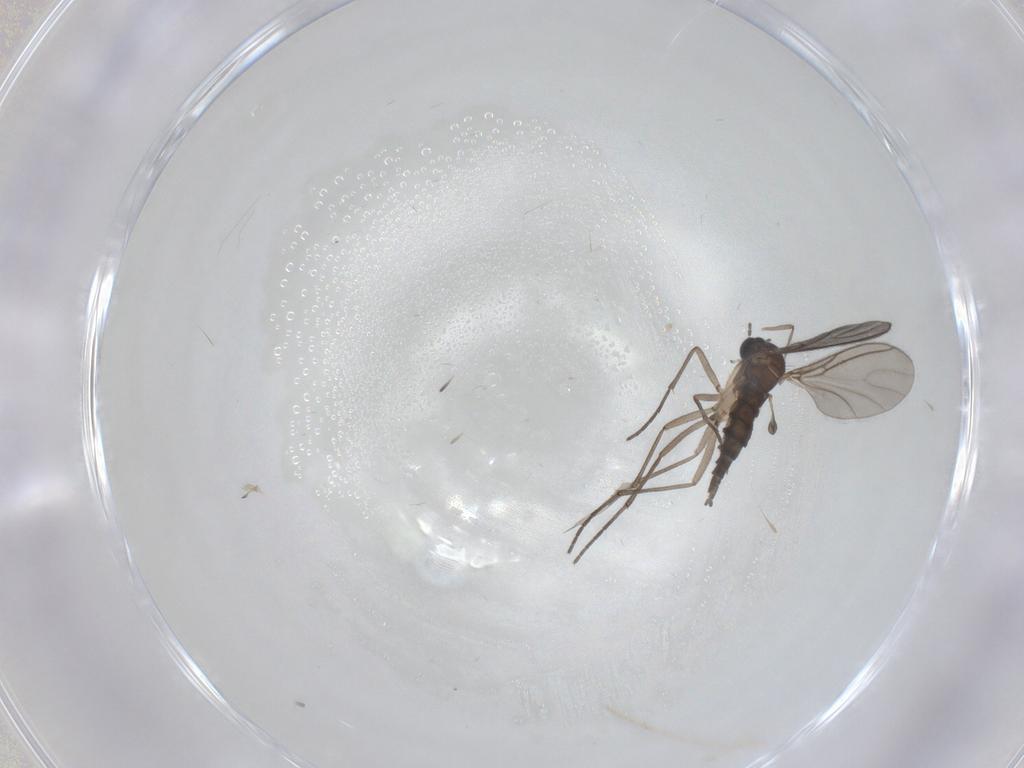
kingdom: Animalia
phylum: Arthropoda
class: Insecta
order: Diptera
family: Sciaridae
